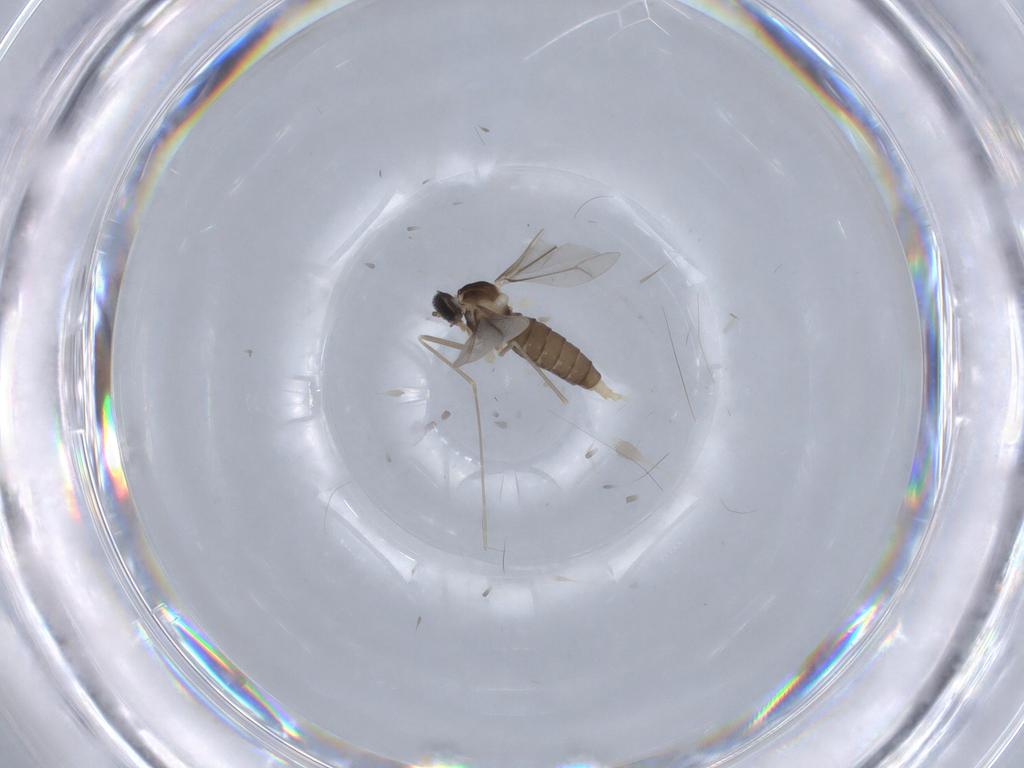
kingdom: Animalia
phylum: Arthropoda
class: Insecta
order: Diptera
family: Cecidomyiidae
